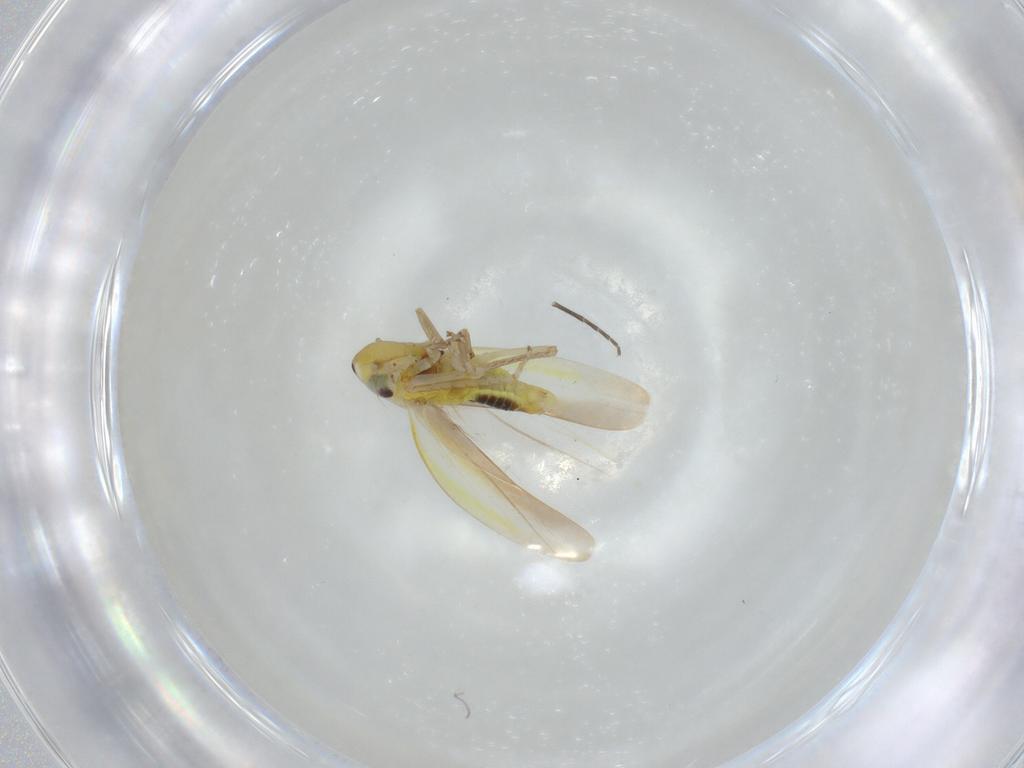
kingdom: Animalia
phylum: Arthropoda
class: Insecta
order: Hemiptera
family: Cicadellidae
